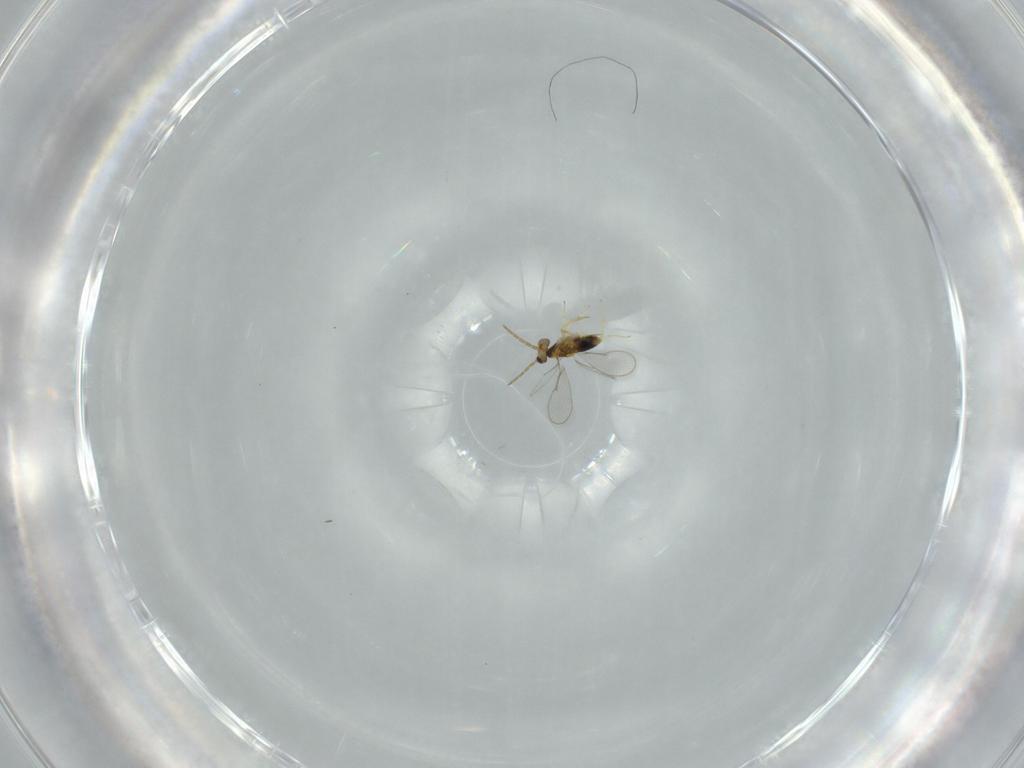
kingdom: Animalia
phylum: Arthropoda
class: Insecta
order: Hymenoptera
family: Aphelinidae
